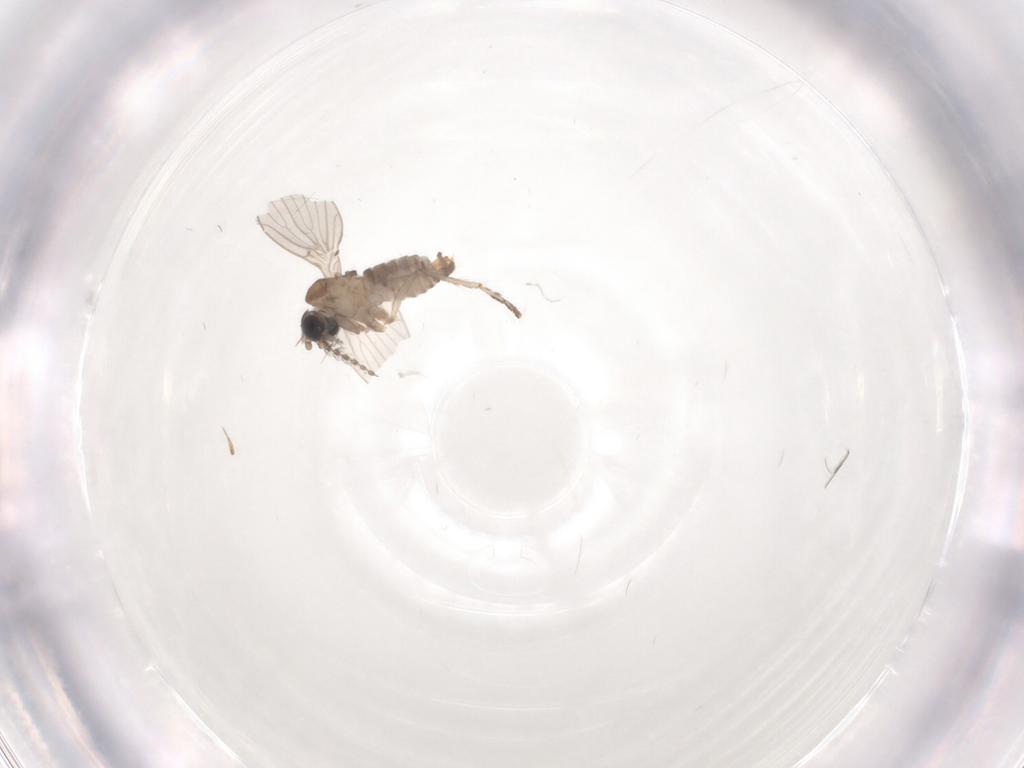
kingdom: Animalia
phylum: Arthropoda
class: Insecta
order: Diptera
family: Psychodidae
